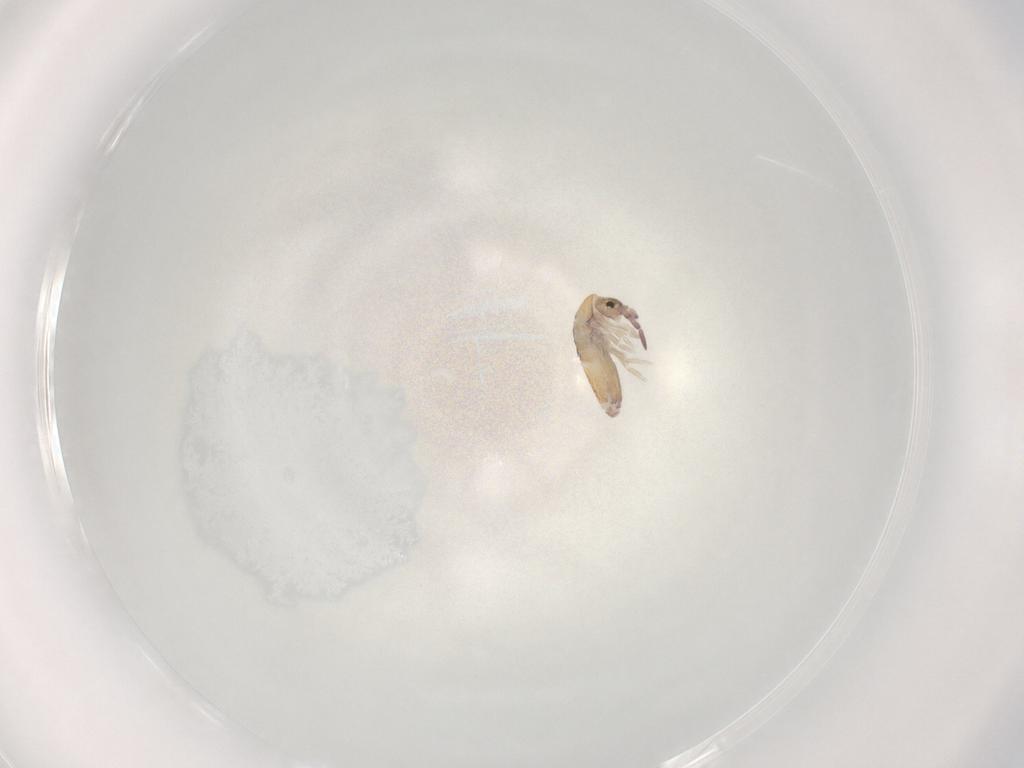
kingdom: Animalia
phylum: Arthropoda
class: Collembola
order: Entomobryomorpha
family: Entomobryidae
